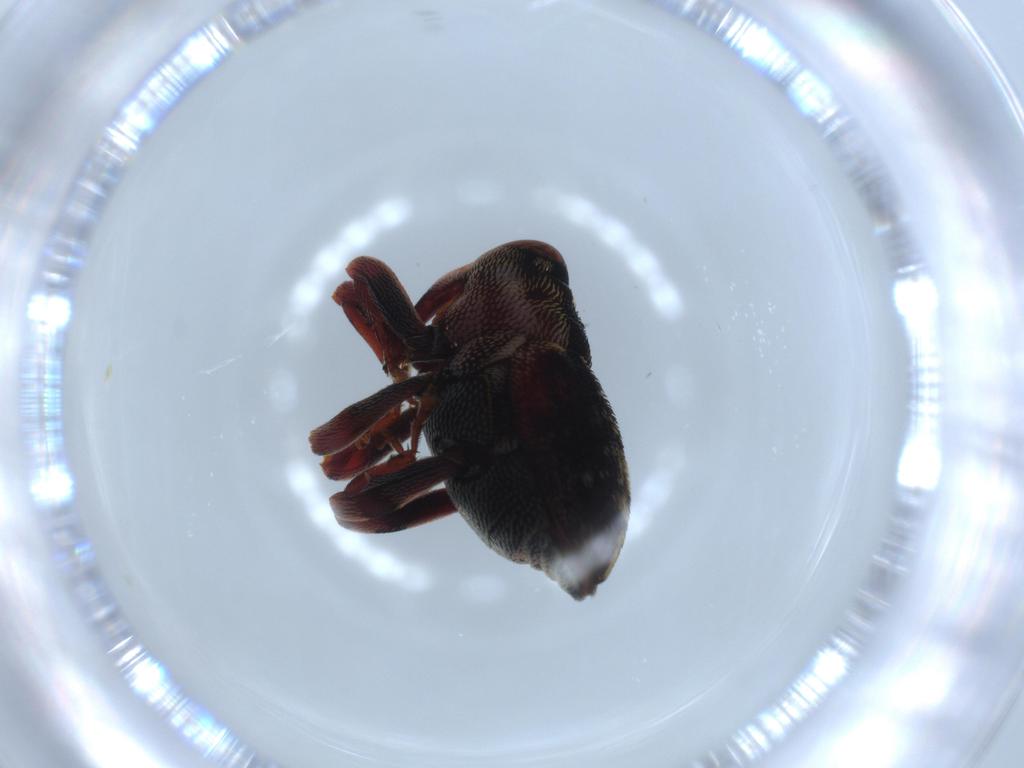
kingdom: Animalia
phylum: Arthropoda
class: Insecta
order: Coleoptera
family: Curculionidae
